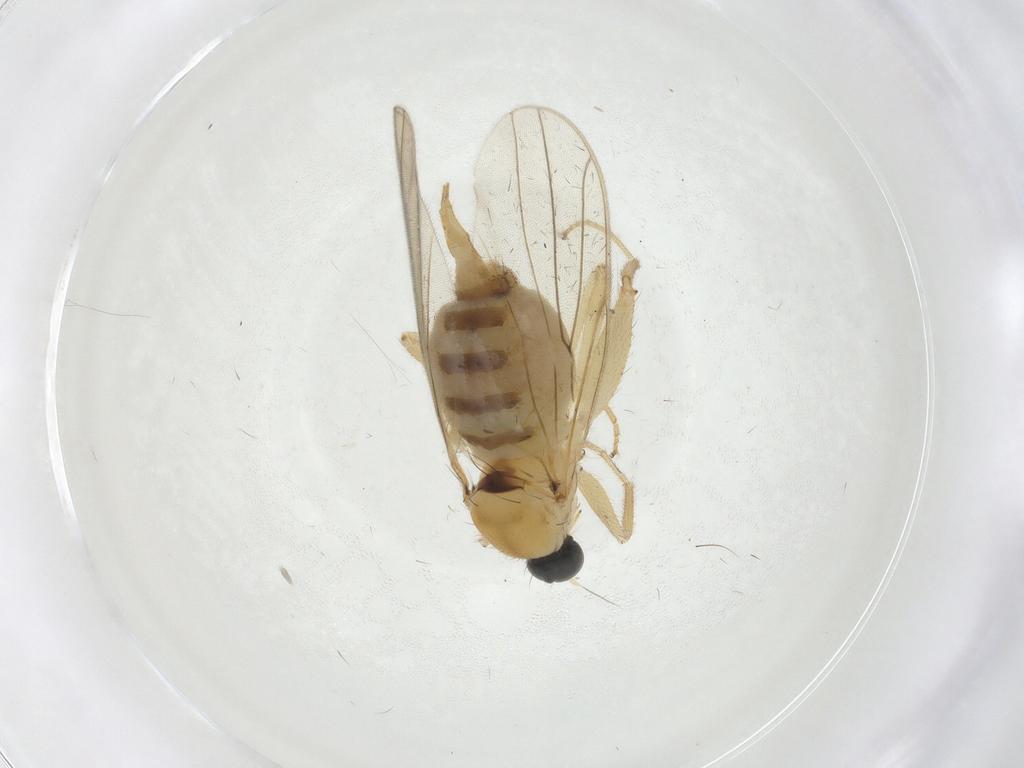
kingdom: Animalia
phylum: Arthropoda
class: Insecta
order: Diptera
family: Hybotidae
